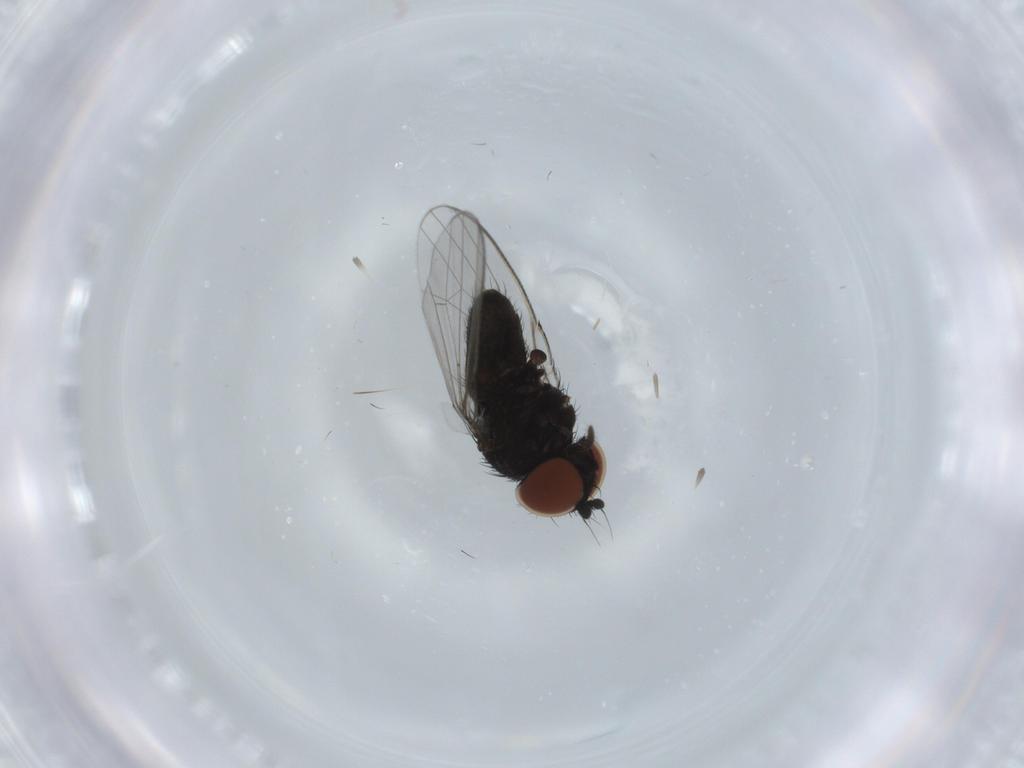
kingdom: Animalia
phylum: Arthropoda
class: Insecta
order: Diptera
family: Milichiidae
